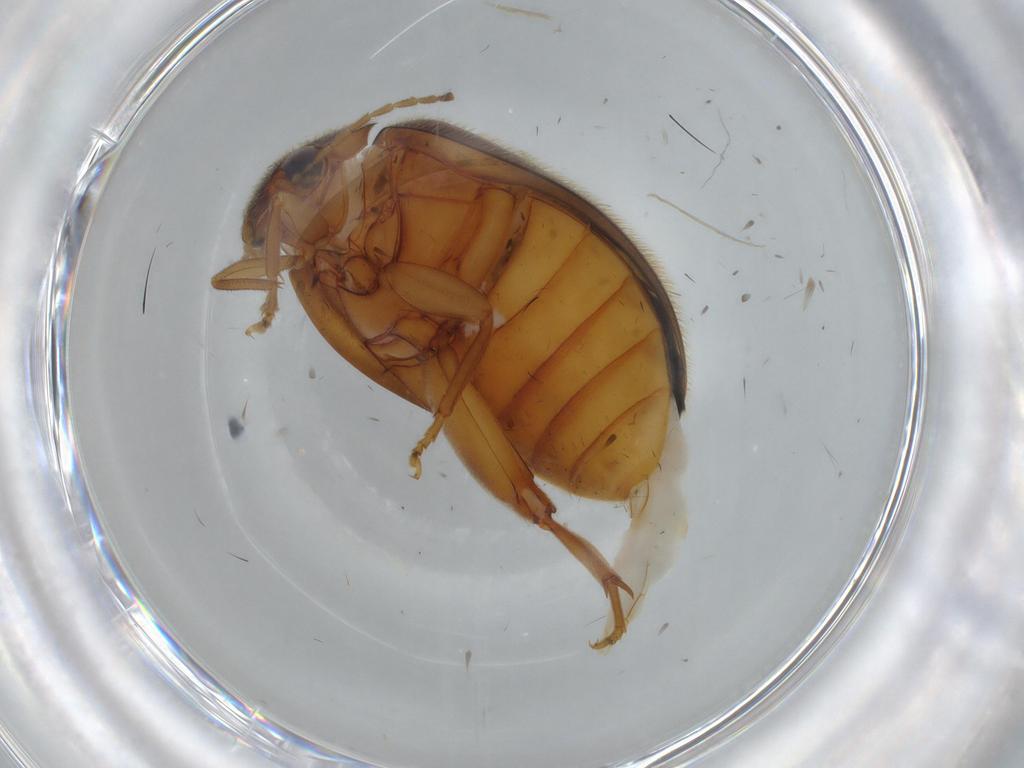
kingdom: Animalia
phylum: Arthropoda
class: Insecta
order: Coleoptera
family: Scirtidae
